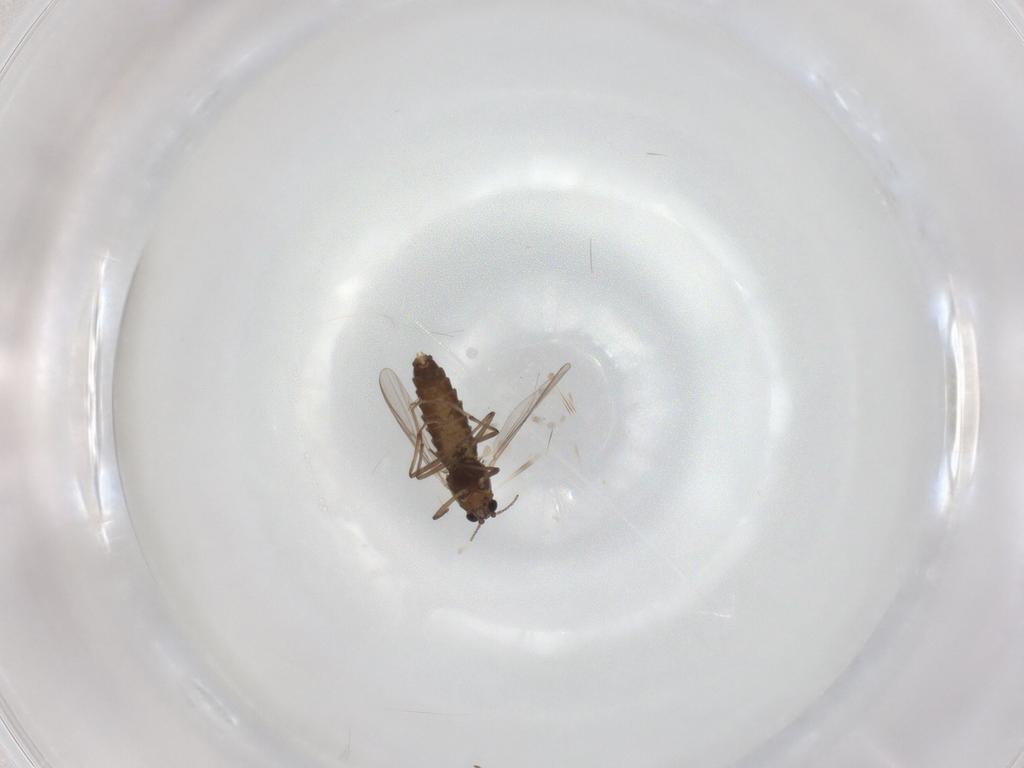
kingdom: Animalia
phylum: Arthropoda
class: Insecta
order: Diptera
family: Chironomidae
